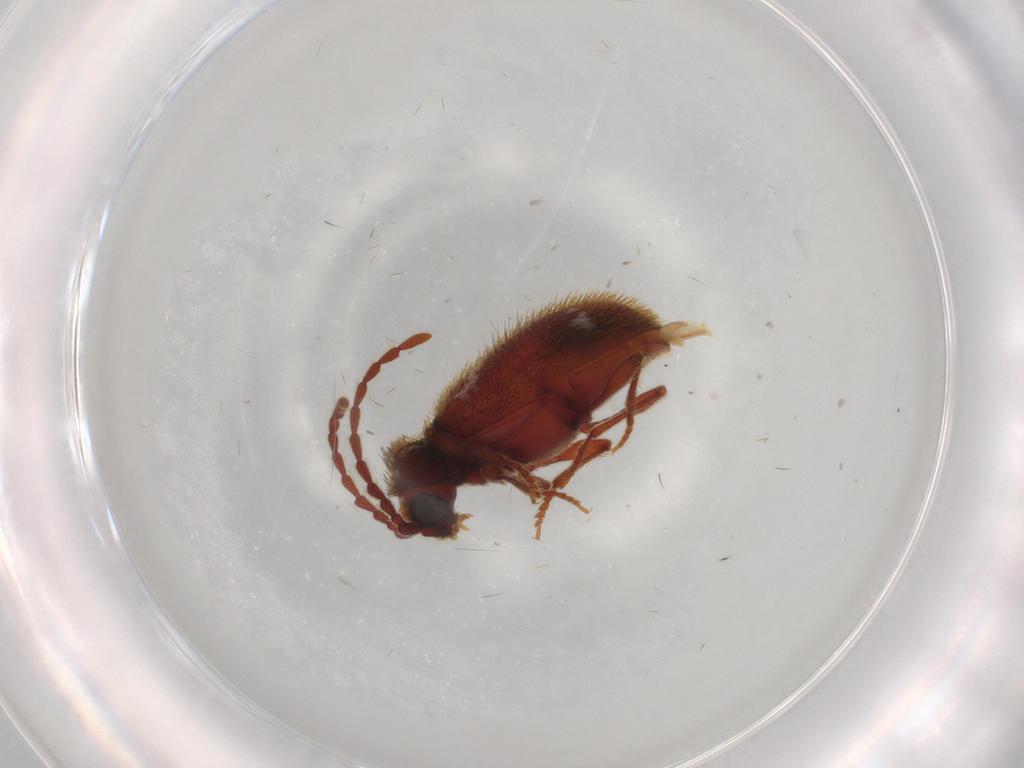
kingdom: Animalia
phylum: Arthropoda
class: Insecta
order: Coleoptera
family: Ptinidae
